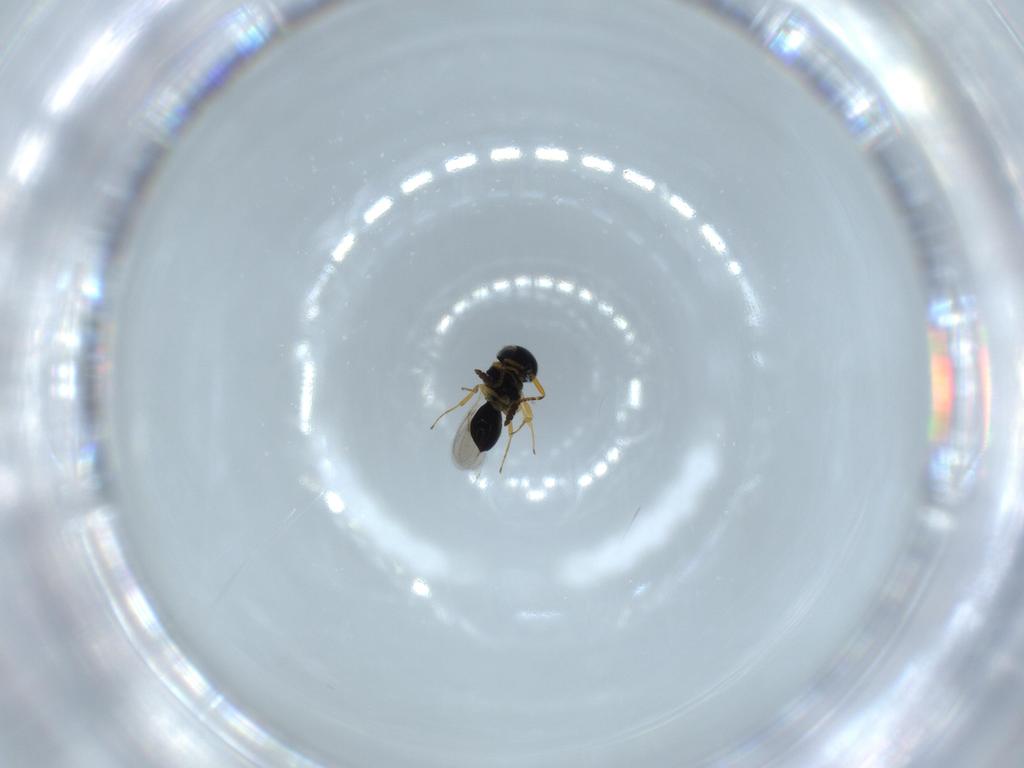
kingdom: Animalia
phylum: Arthropoda
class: Insecta
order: Hymenoptera
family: Scelionidae
